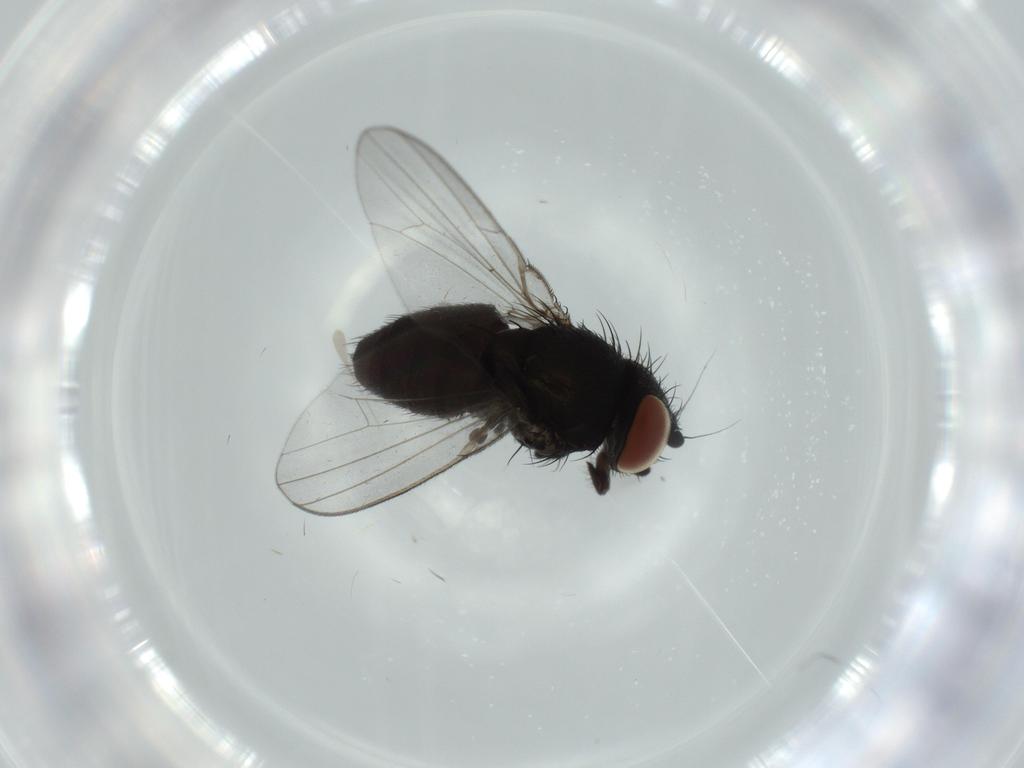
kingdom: Animalia
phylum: Arthropoda
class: Insecta
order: Diptera
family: Milichiidae
